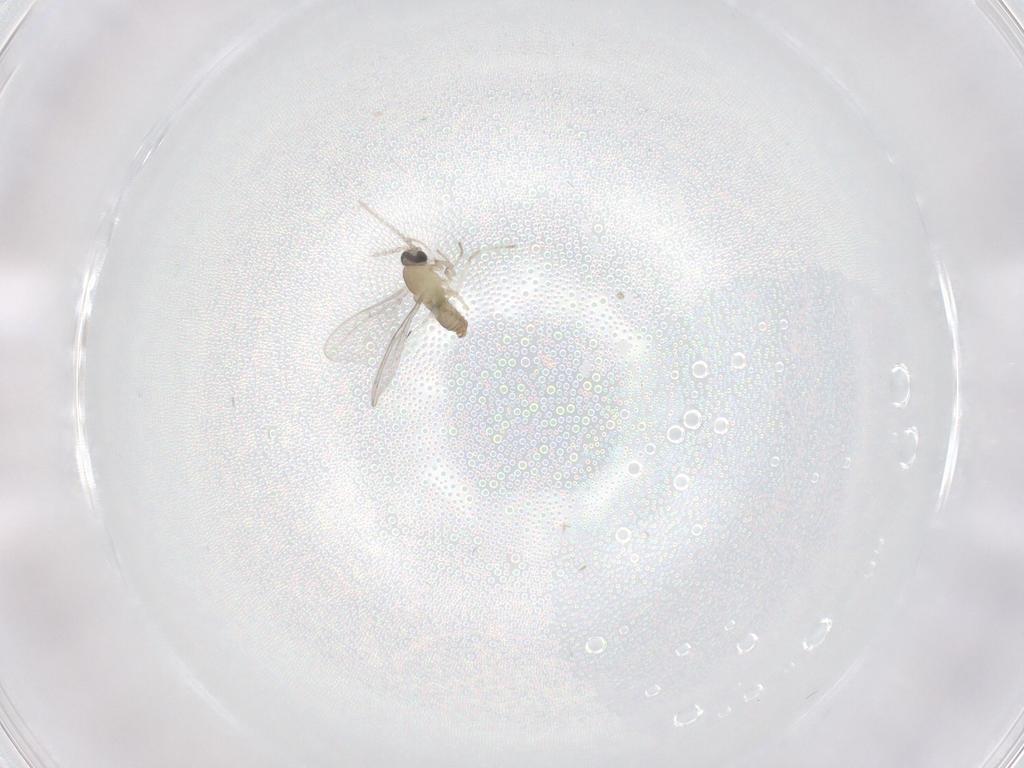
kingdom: Animalia
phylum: Arthropoda
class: Insecta
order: Diptera
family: Cecidomyiidae
